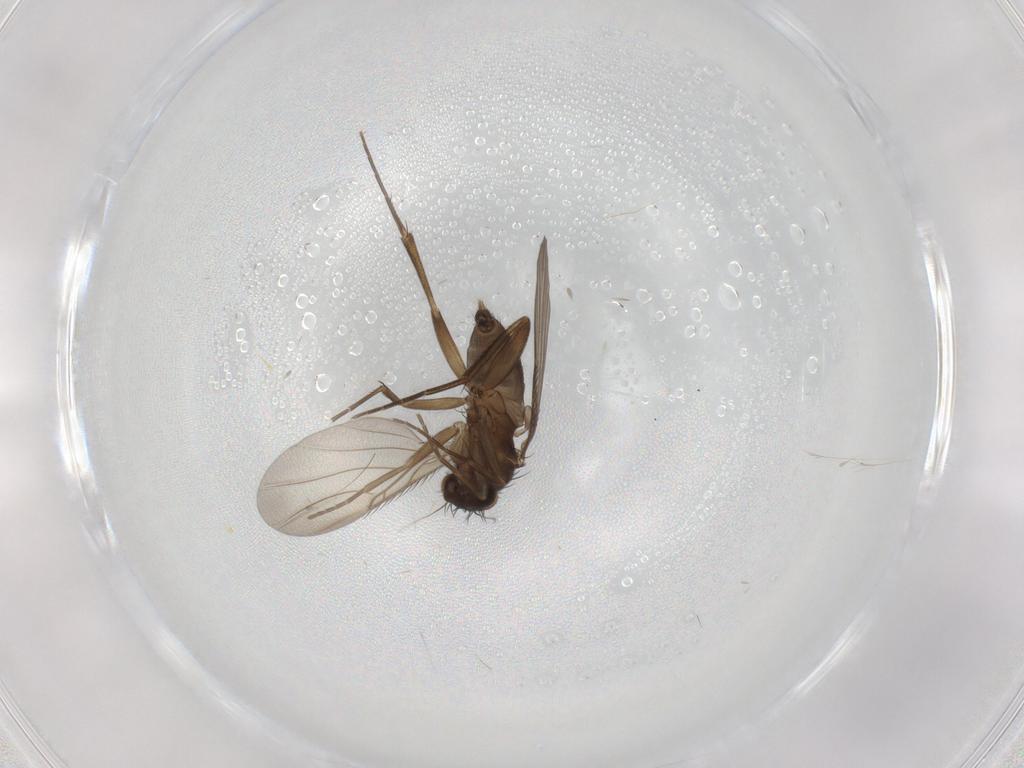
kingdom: Animalia
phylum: Arthropoda
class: Insecta
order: Diptera
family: Phoridae
